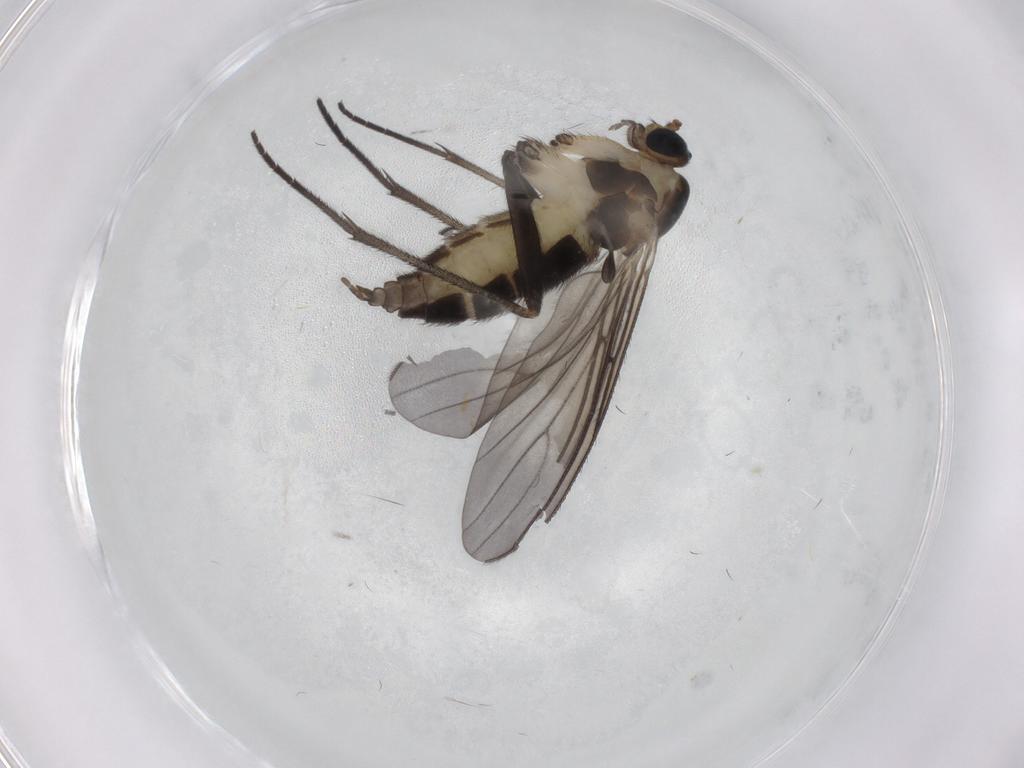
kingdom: Animalia
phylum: Arthropoda
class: Insecta
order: Diptera
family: Sciaridae
